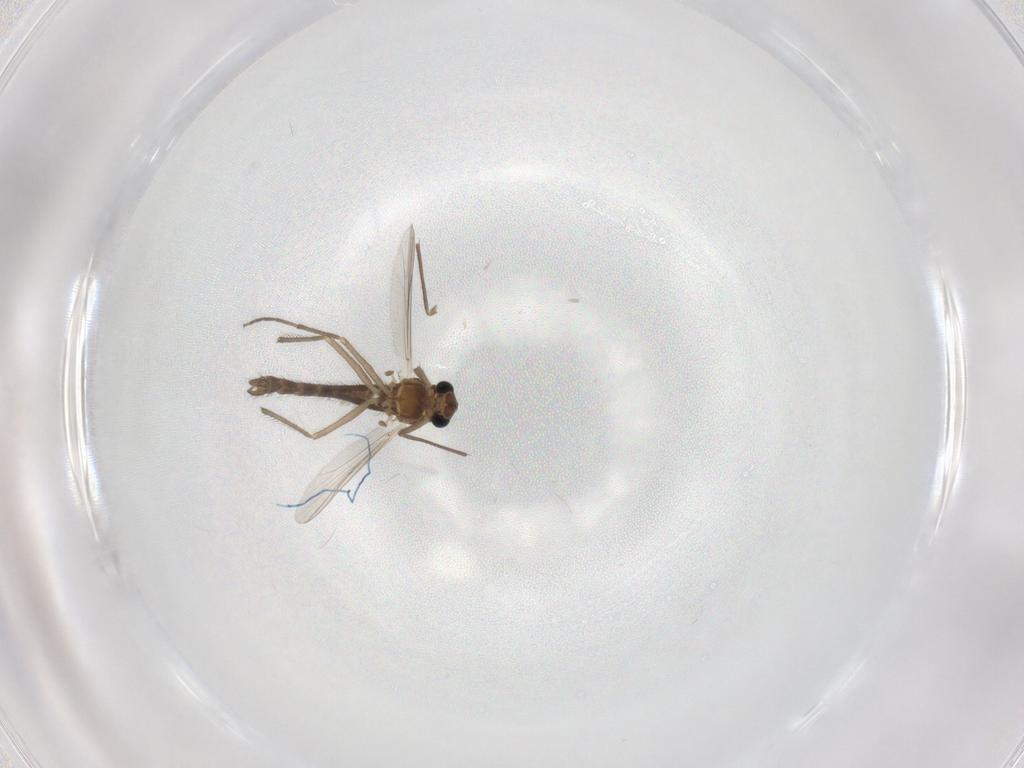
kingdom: Animalia
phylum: Arthropoda
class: Insecta
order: Diptera
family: Chironomidae
